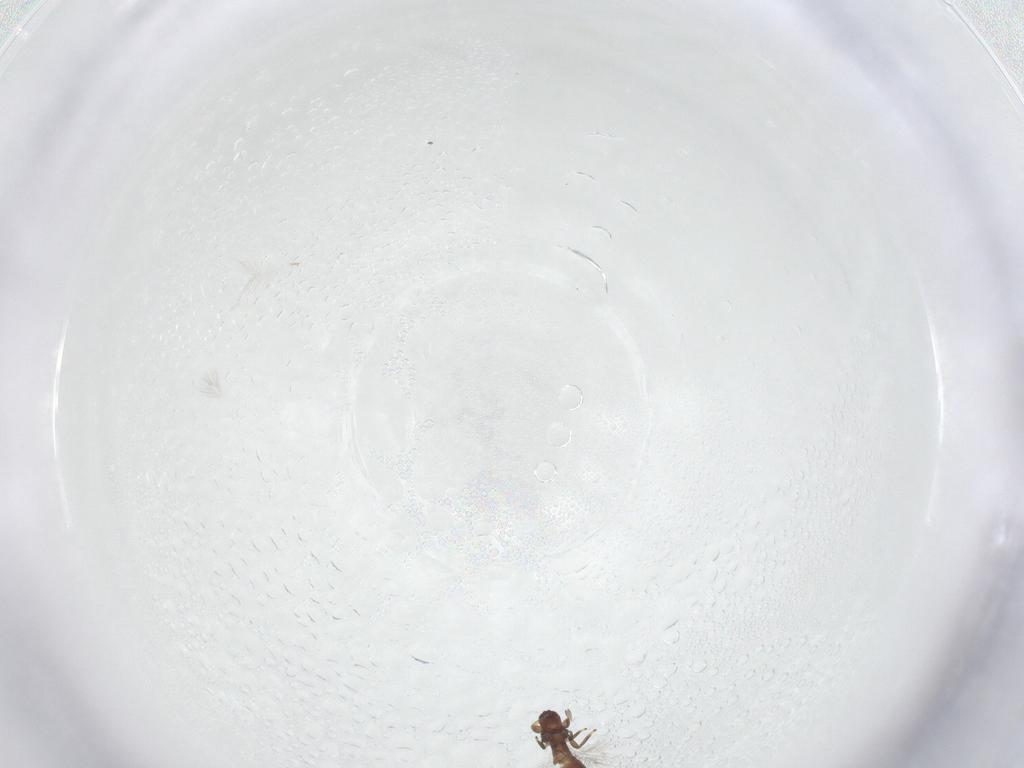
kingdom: Animalia
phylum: Arthropoda
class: Insecta
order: Thysanoptera
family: Phlaeothripidae
